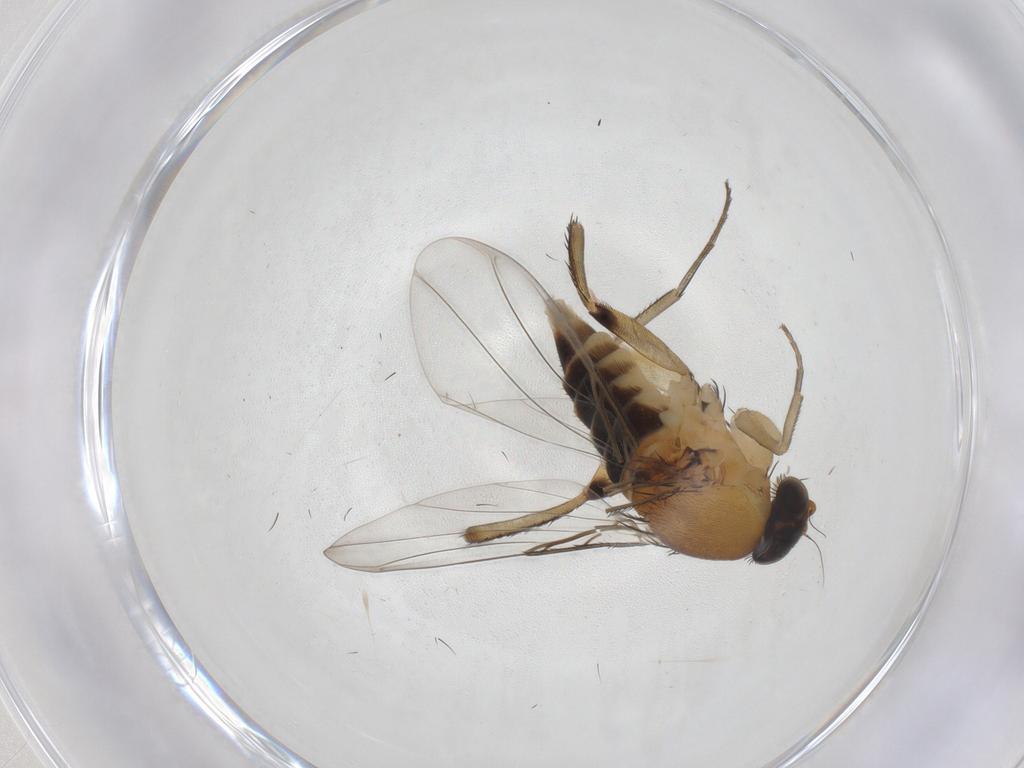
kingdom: Animalia
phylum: Arthropoda
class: Insecta
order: Diptera
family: Phoridae
